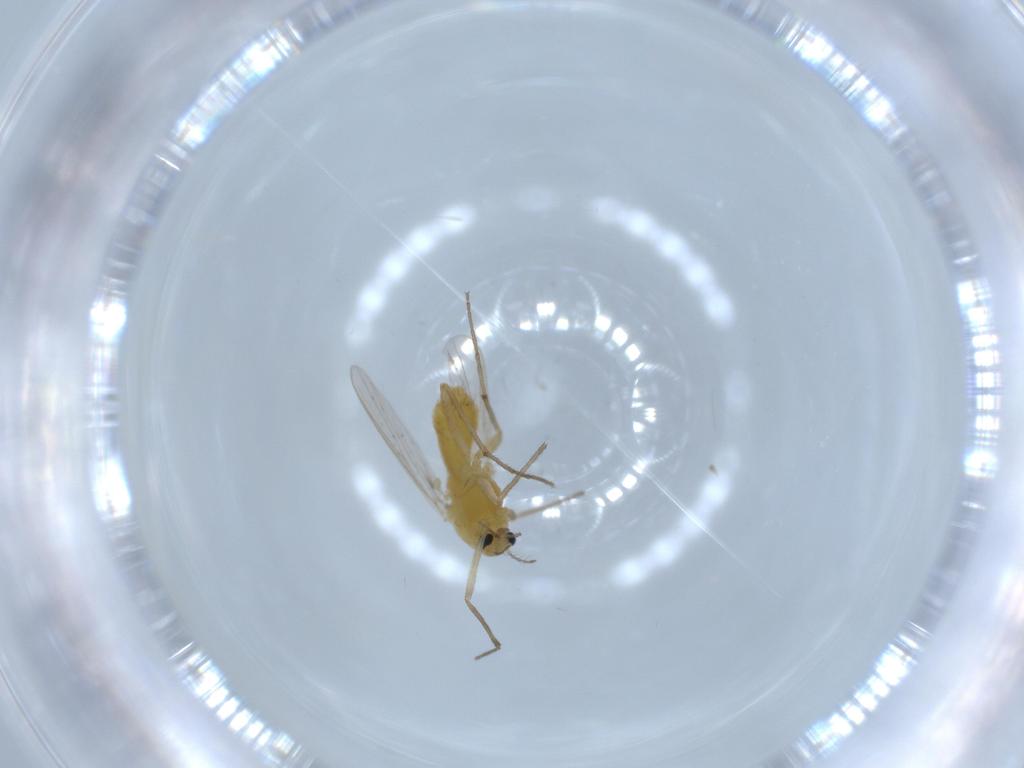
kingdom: Animalia
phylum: Arthropoda
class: Insecta
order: Diptera
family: Chironomidae
